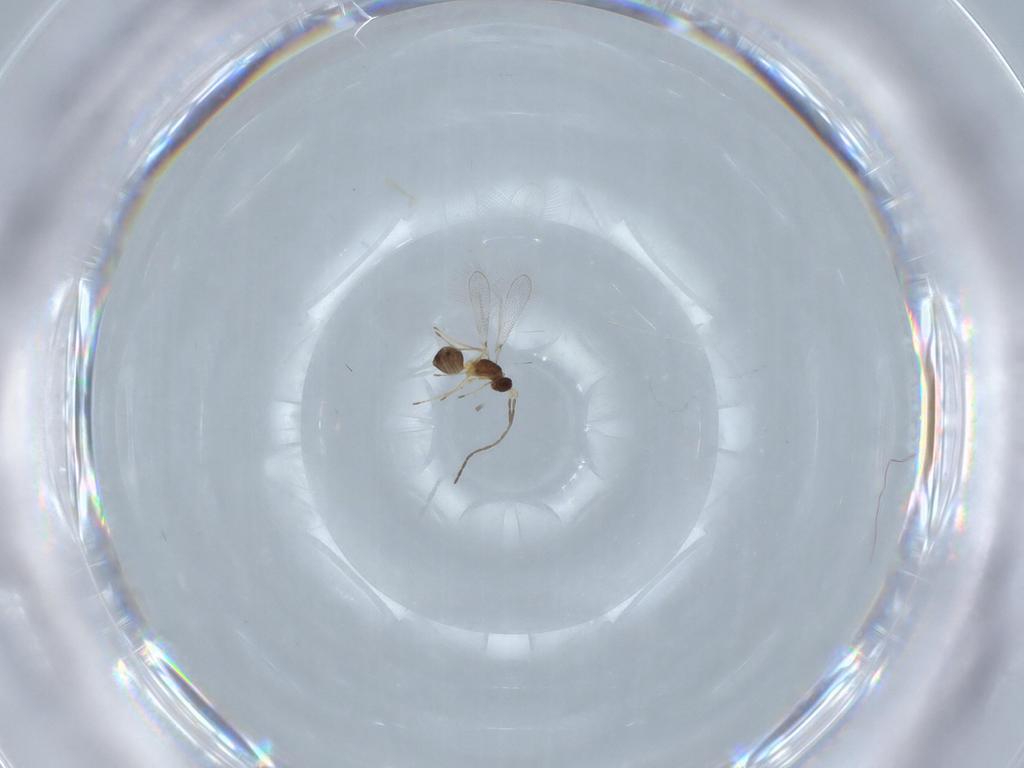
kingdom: Animalia
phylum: Arthropoda
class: Insecta
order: Hymenoptera
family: Mymaridae
